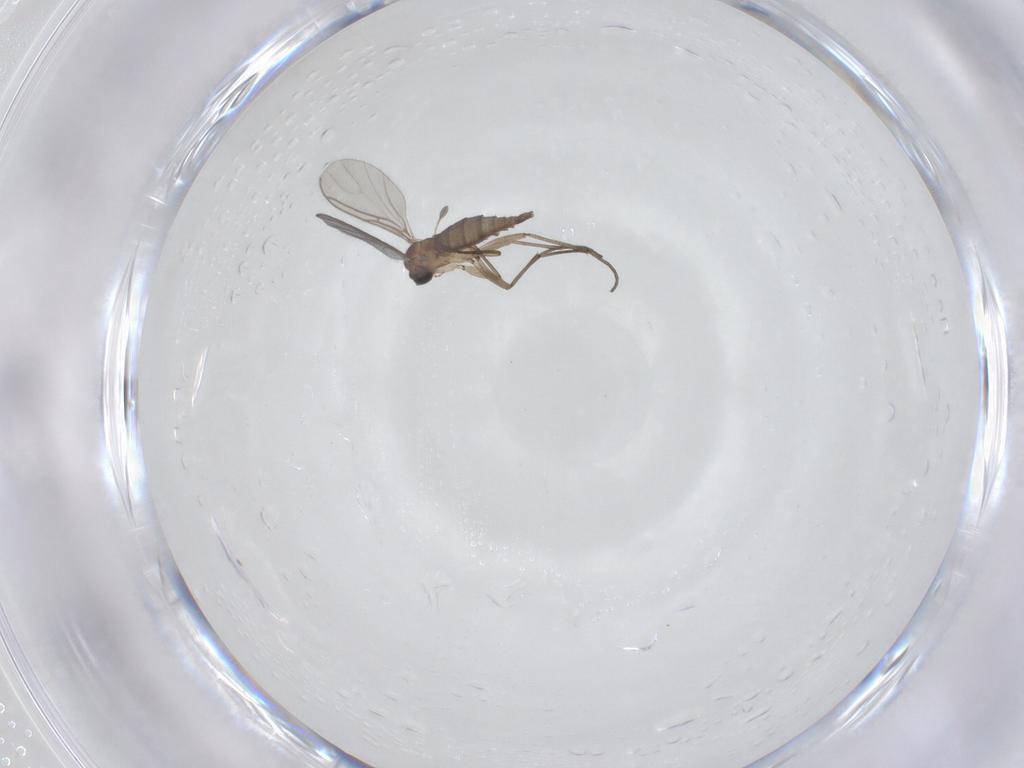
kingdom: Animalia
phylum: Arthropoda
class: Insecta
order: Diptera
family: Sciaridae
